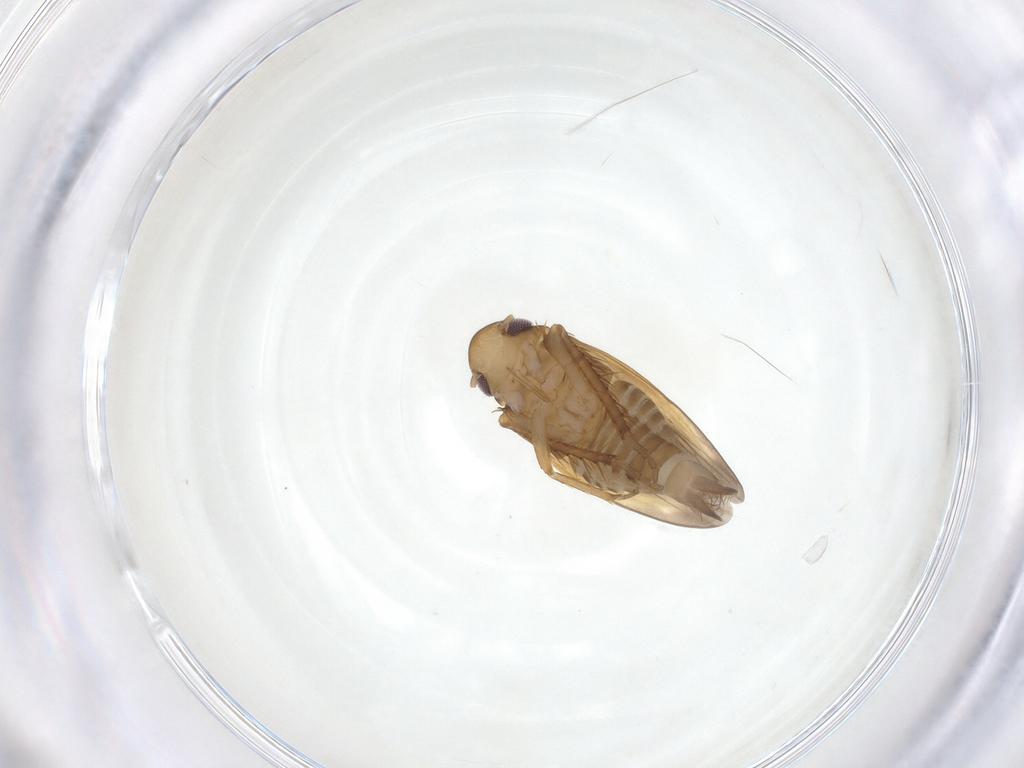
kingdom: Animalia
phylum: Arthropoda
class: Insecta
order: Hemiptera
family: Cicadellidae
